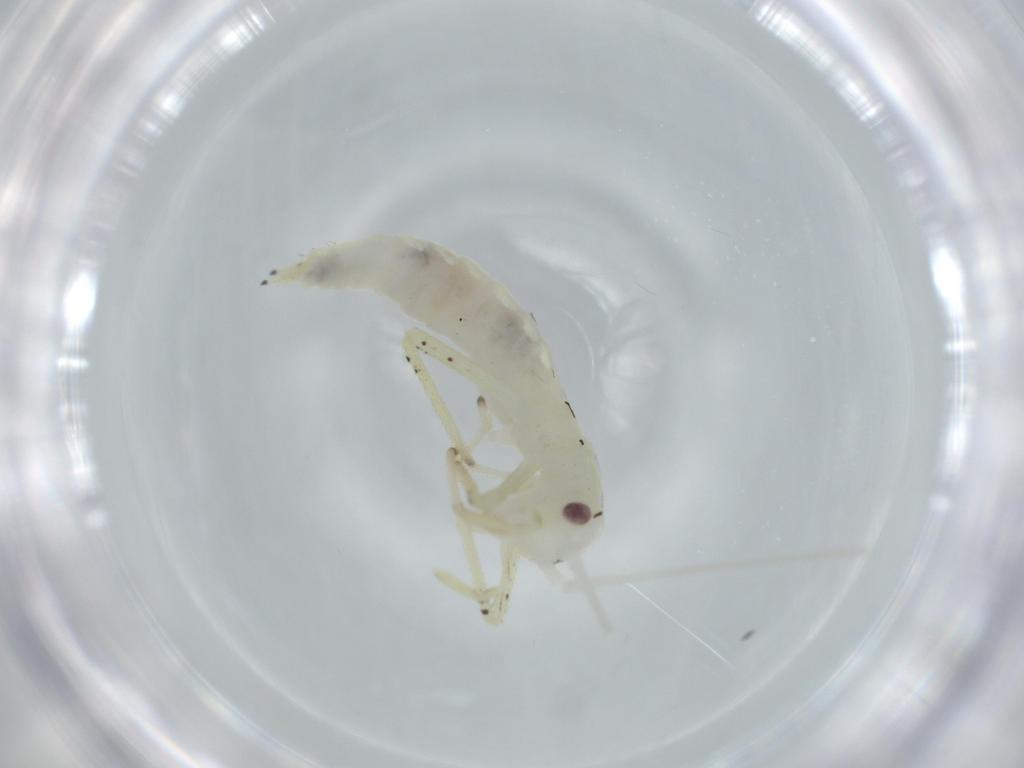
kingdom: Animalia
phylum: Arthropoda
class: Insecta
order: Orthoptera
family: Oecanthidae
